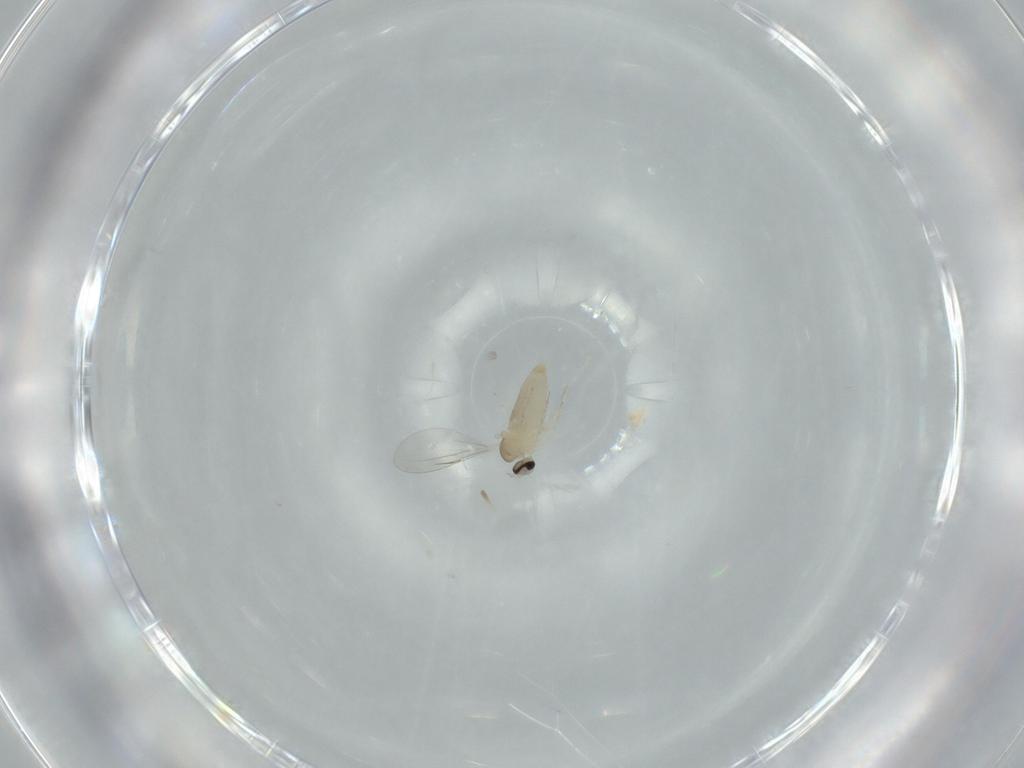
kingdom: Animalia
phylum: Arthropoda
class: Insecta
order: Diptera
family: Cecidomyiidae
